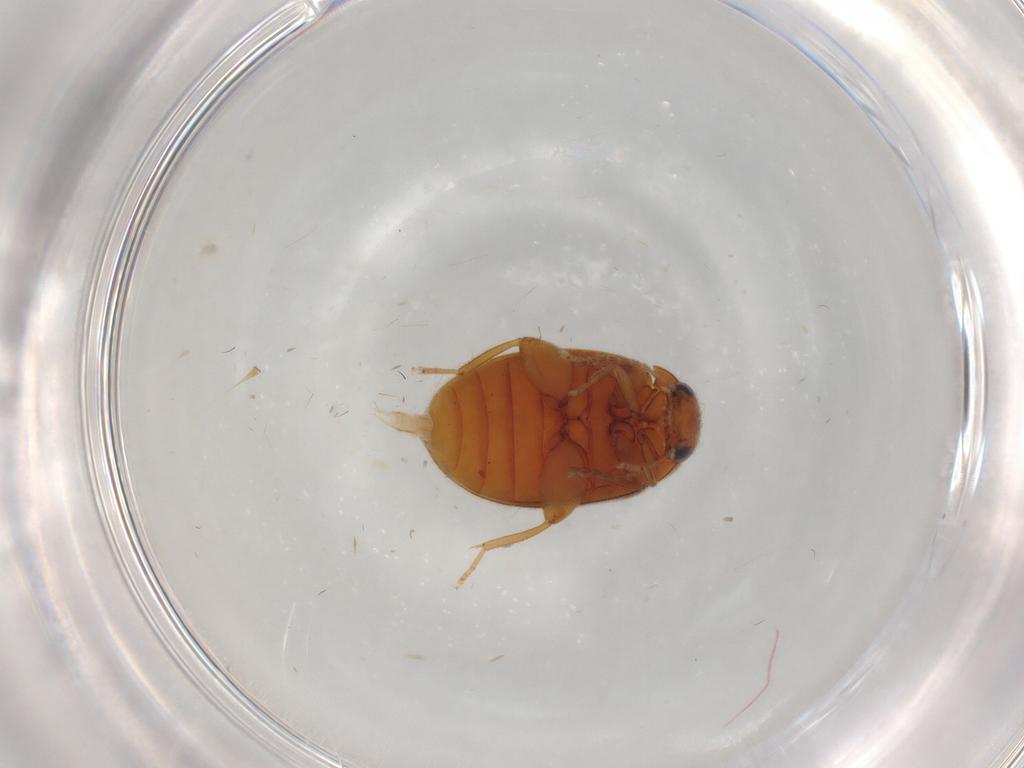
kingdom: Animalia
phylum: Arthropoda
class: Insecta
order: Coleoptera
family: Scirtidae
